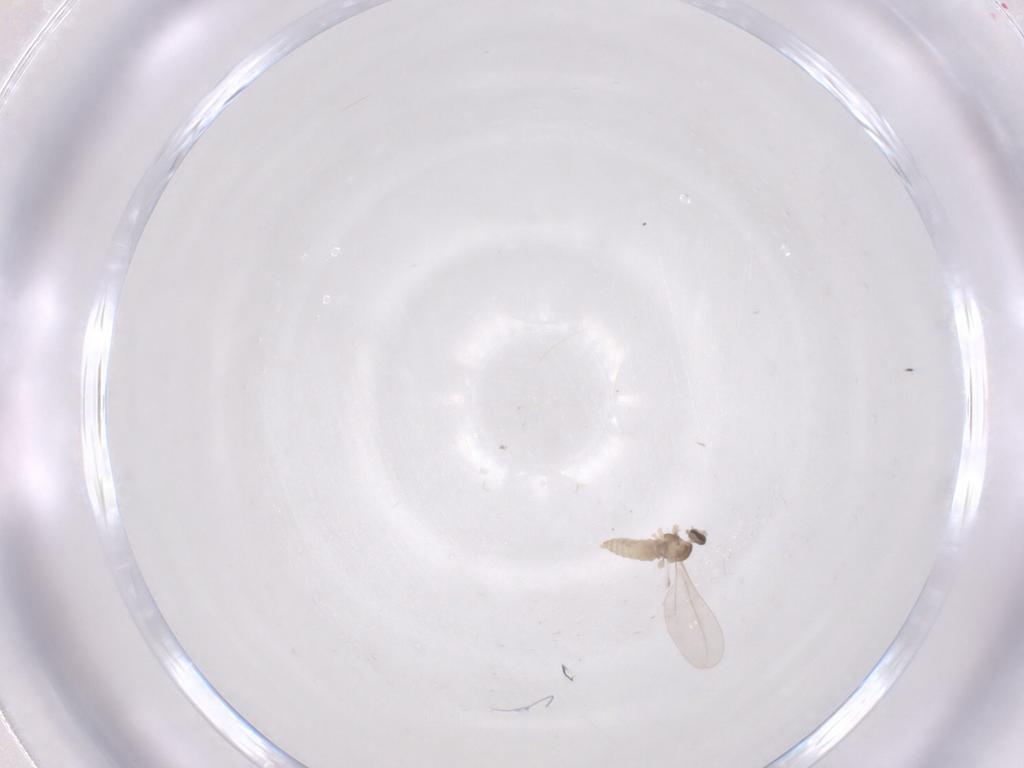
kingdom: Animalia
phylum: Arthropoda
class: Insecta
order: Diptera
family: Cecidomyiidae
